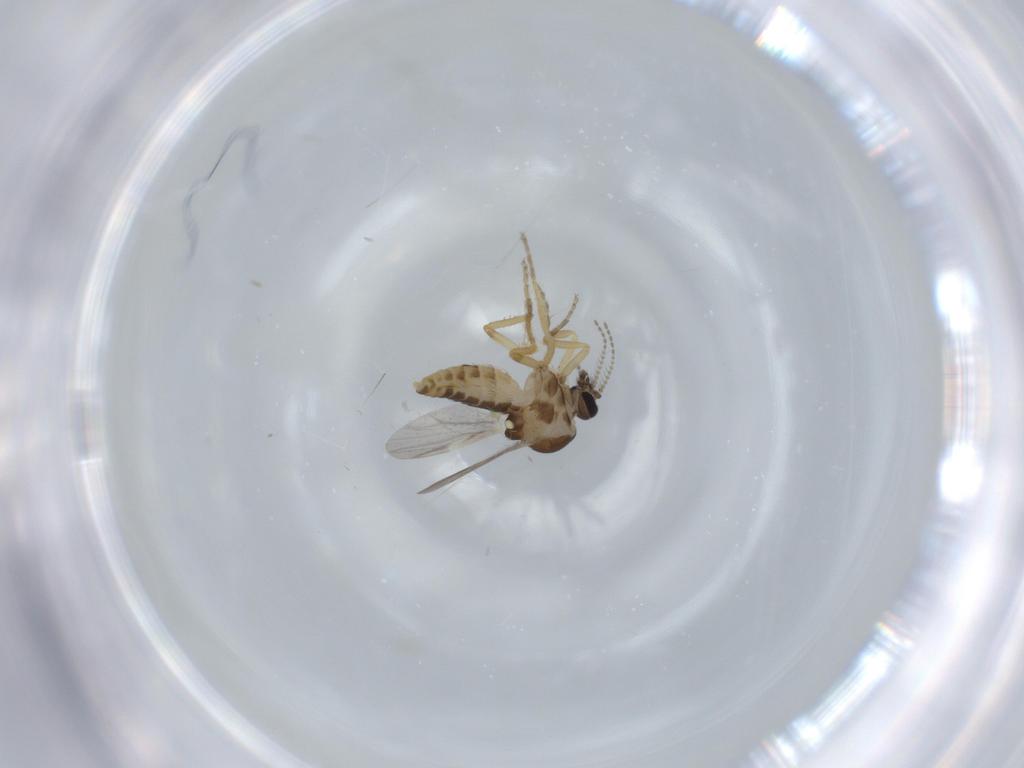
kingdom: Animalia
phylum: Arthropoda
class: Insecta
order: Diptera
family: Ceratopogonidae
